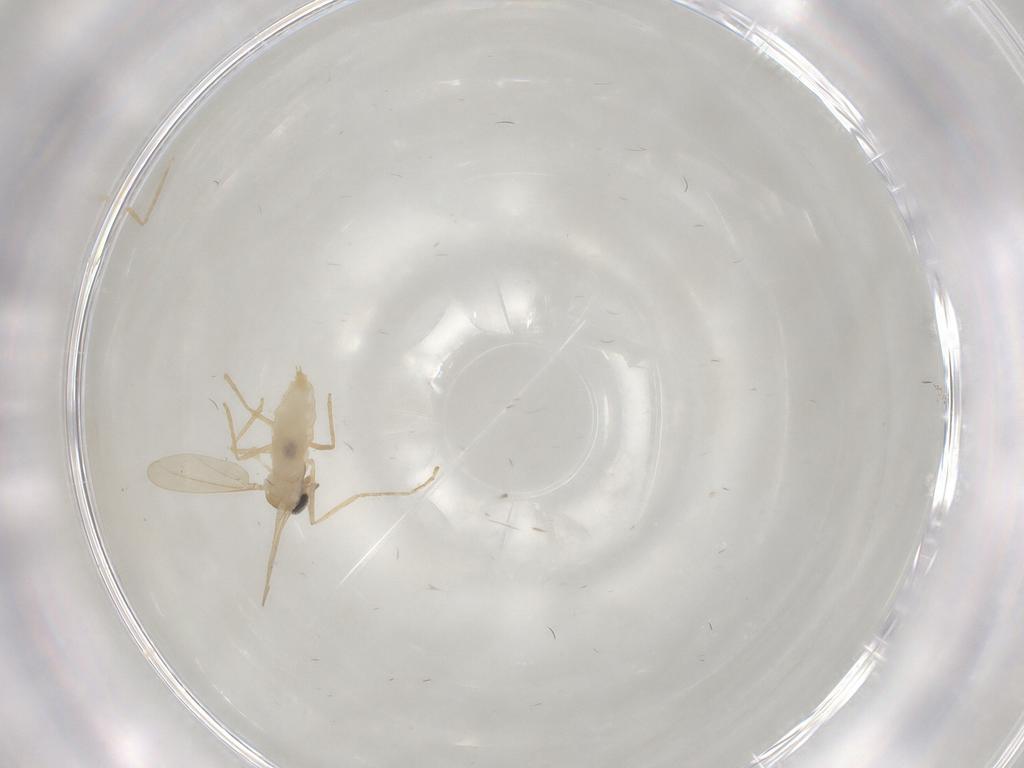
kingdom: Animalia
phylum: Arthropoda
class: Insecta
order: Diptera
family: Cecidomyiidae
